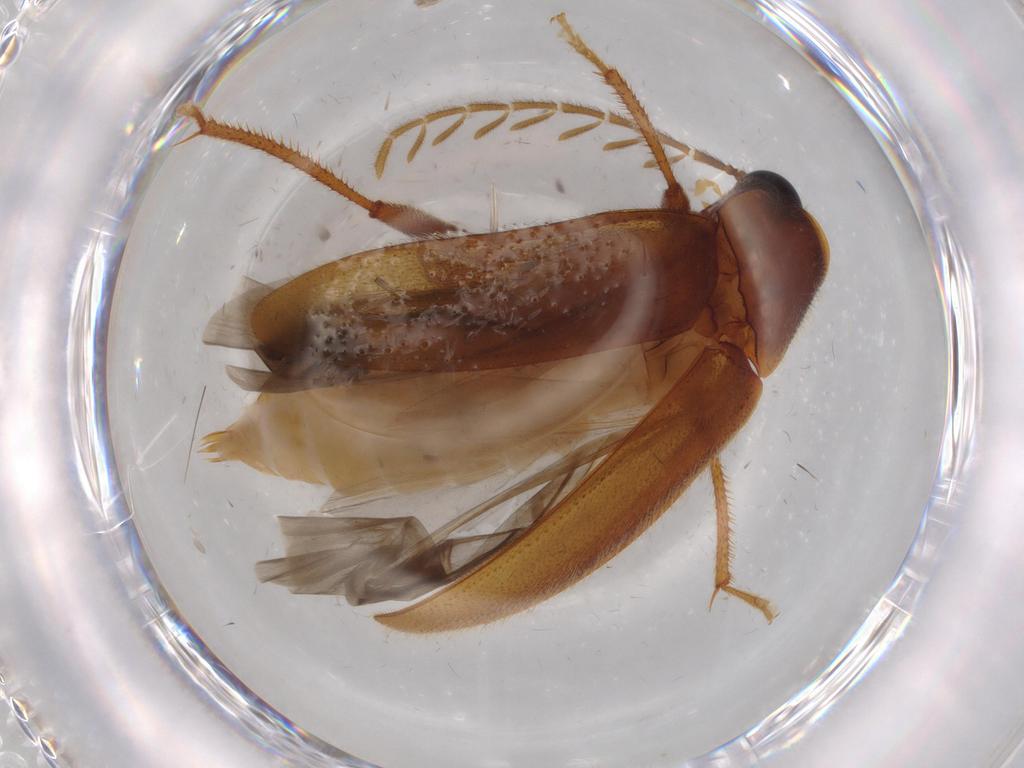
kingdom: Animalia
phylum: Arthropoda
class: Insecta
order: Coleoptera
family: Ptilodactylidae
